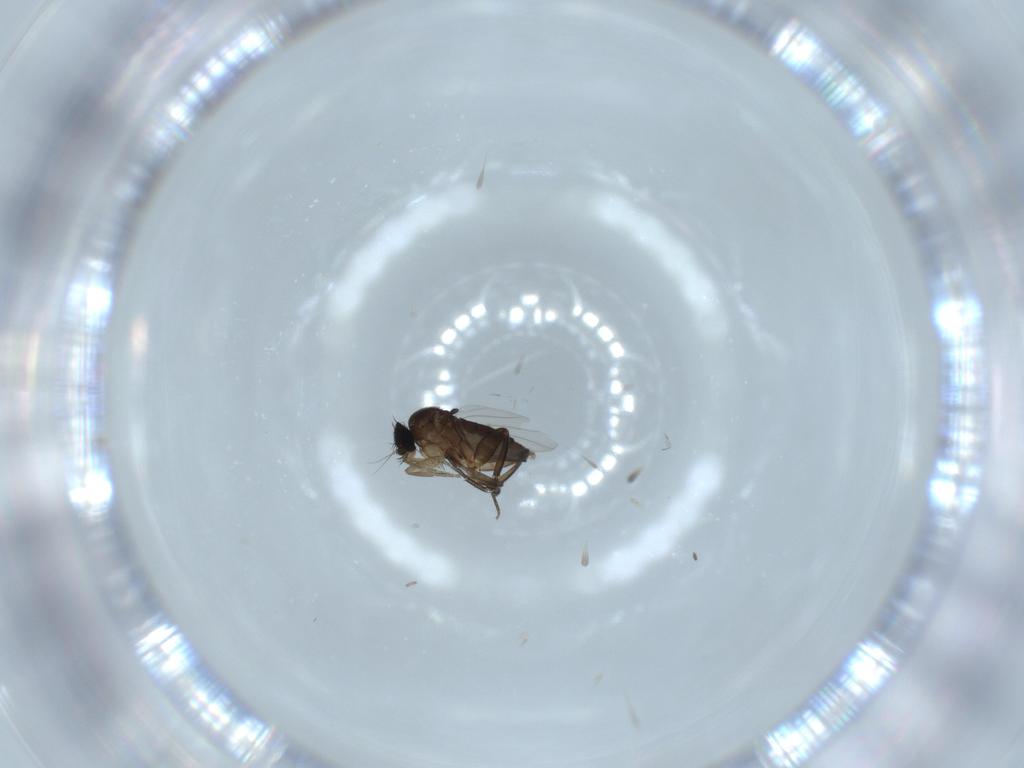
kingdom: Animalia
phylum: Arthropoda
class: Insecta
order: Diptera
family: Phoridae
